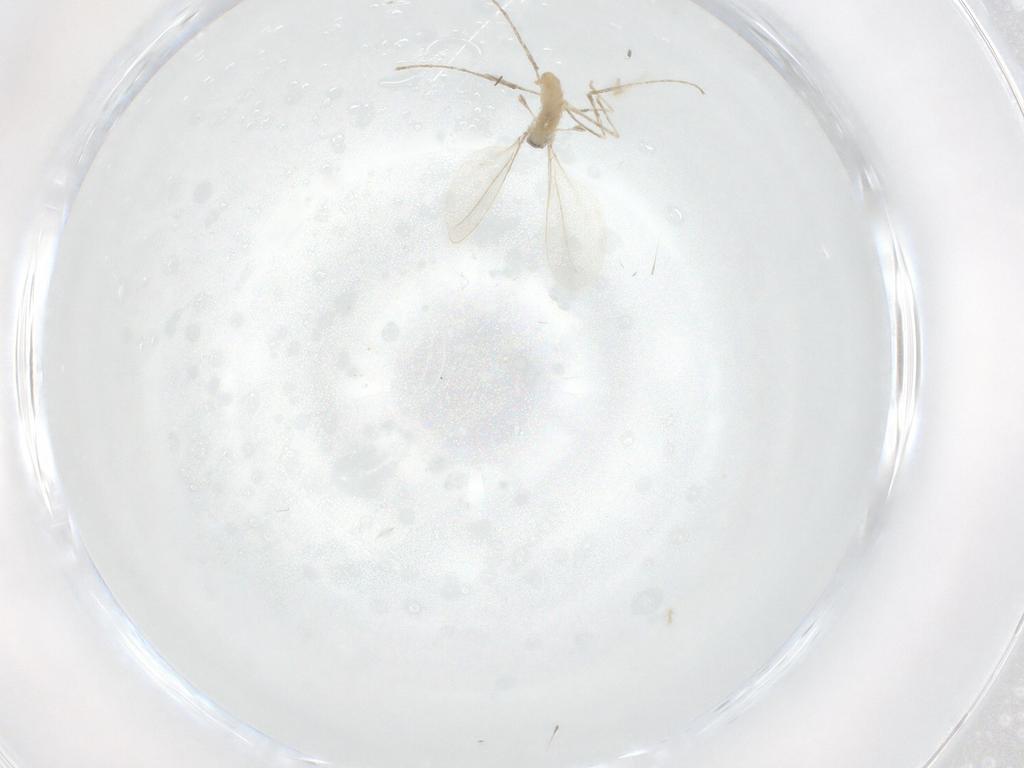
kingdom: Animalia
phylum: Arthropoda
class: Insecta
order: Diptera
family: Cecidomyiidae
